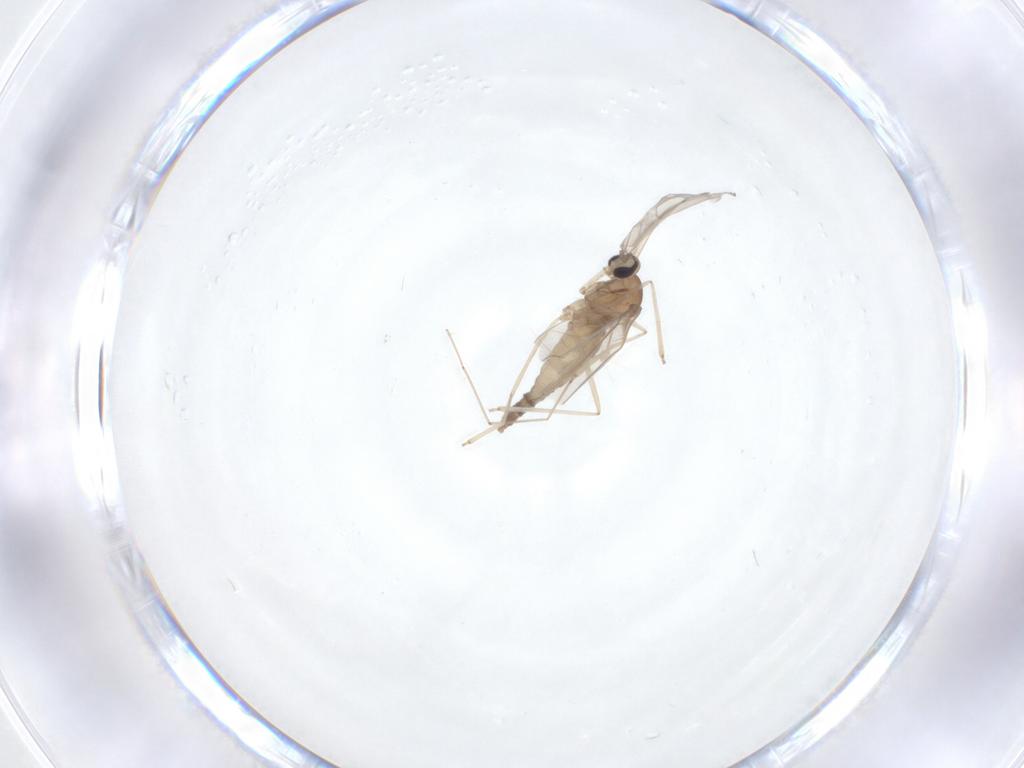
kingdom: Animalia
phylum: Arthropoda
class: Insecta
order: Diptera
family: Cecidomyiidae
